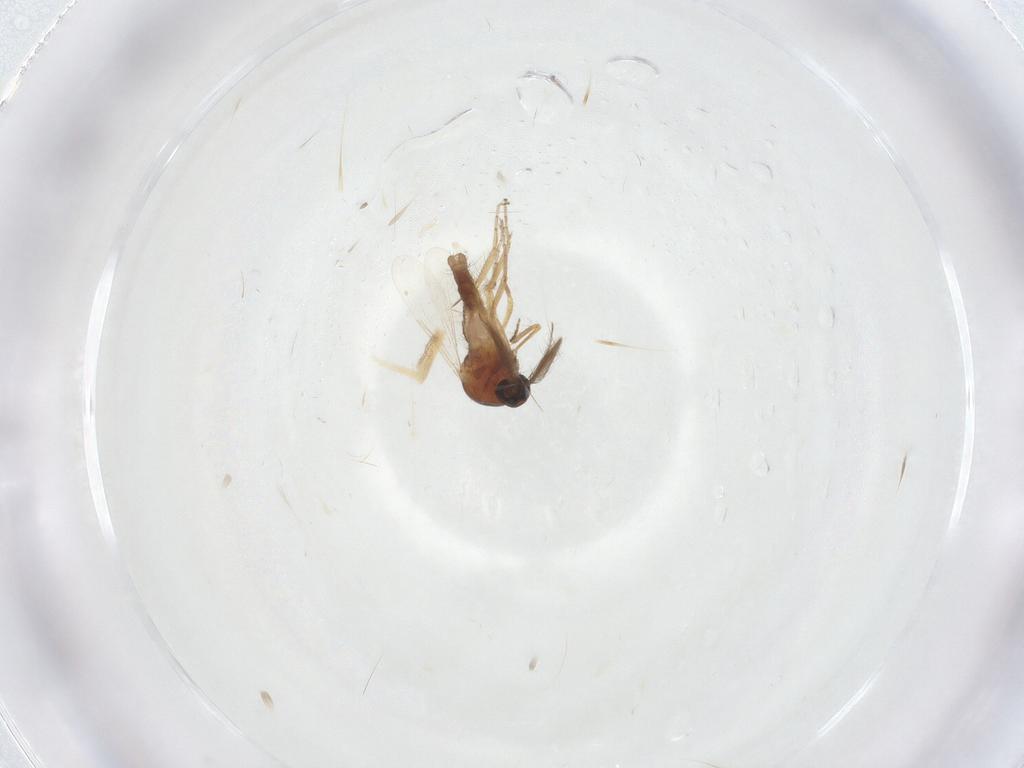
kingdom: Animalia
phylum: Arthropoda
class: Insecta
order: Diptera
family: Ceratopogonidae
